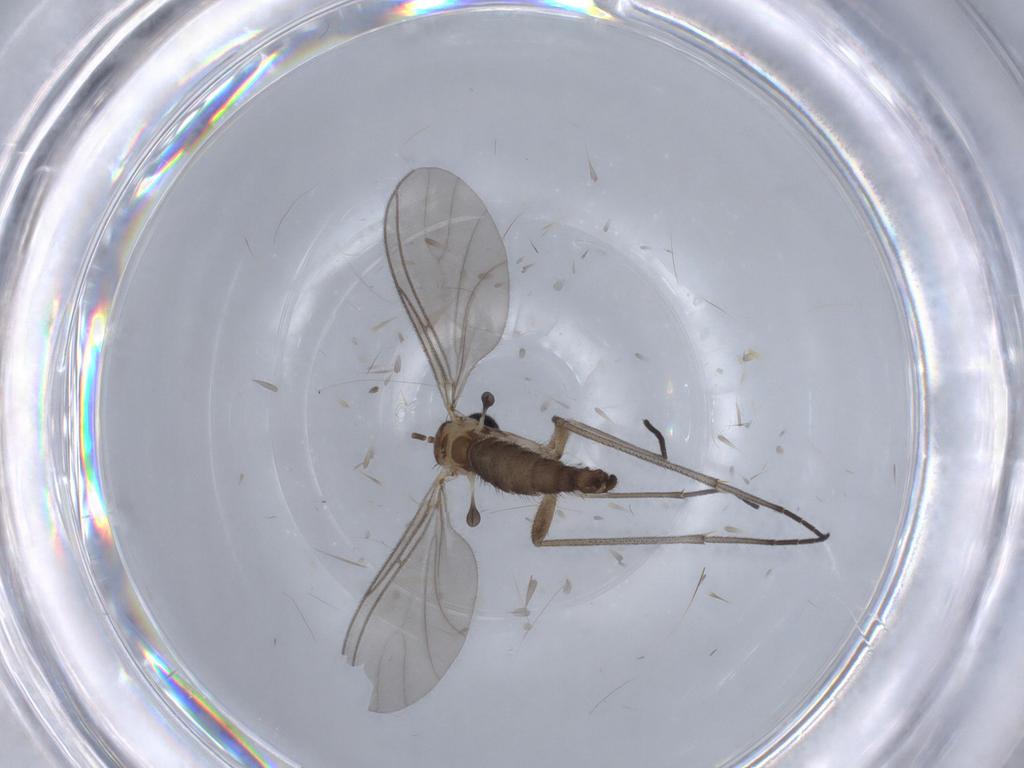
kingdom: Animalia
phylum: Arthropoda
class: Insecta
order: Diptera
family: Sciaridae
